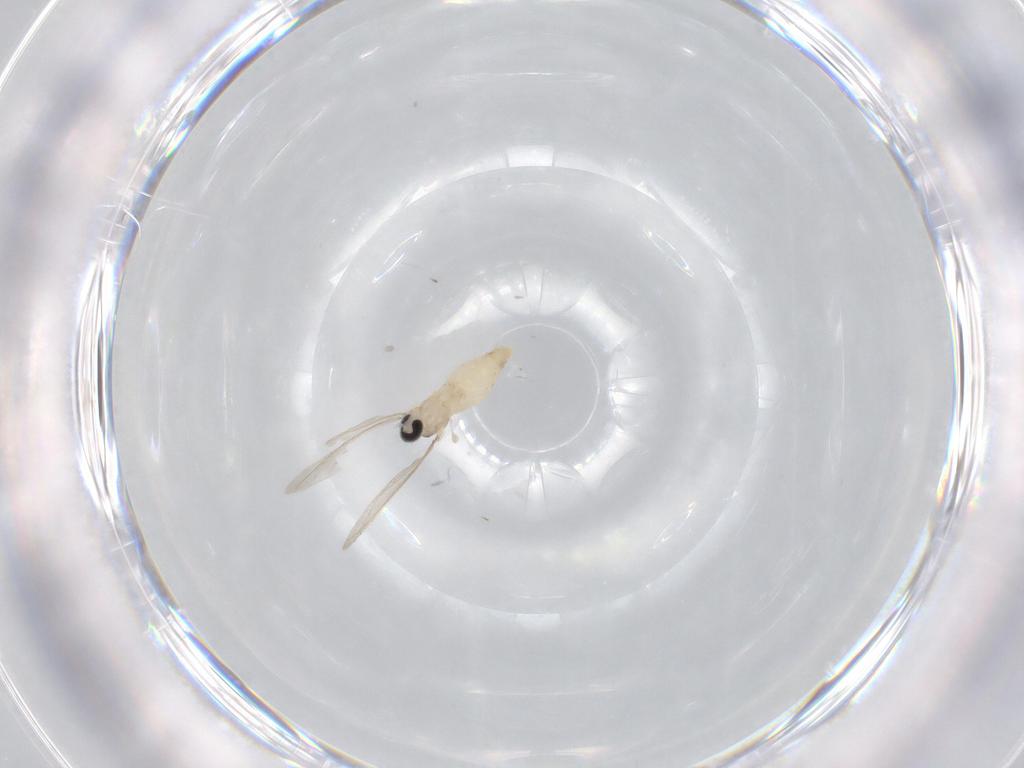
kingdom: Animalia
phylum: Arthropoda
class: Insecta
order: Diptera
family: Cecidomyiidae
